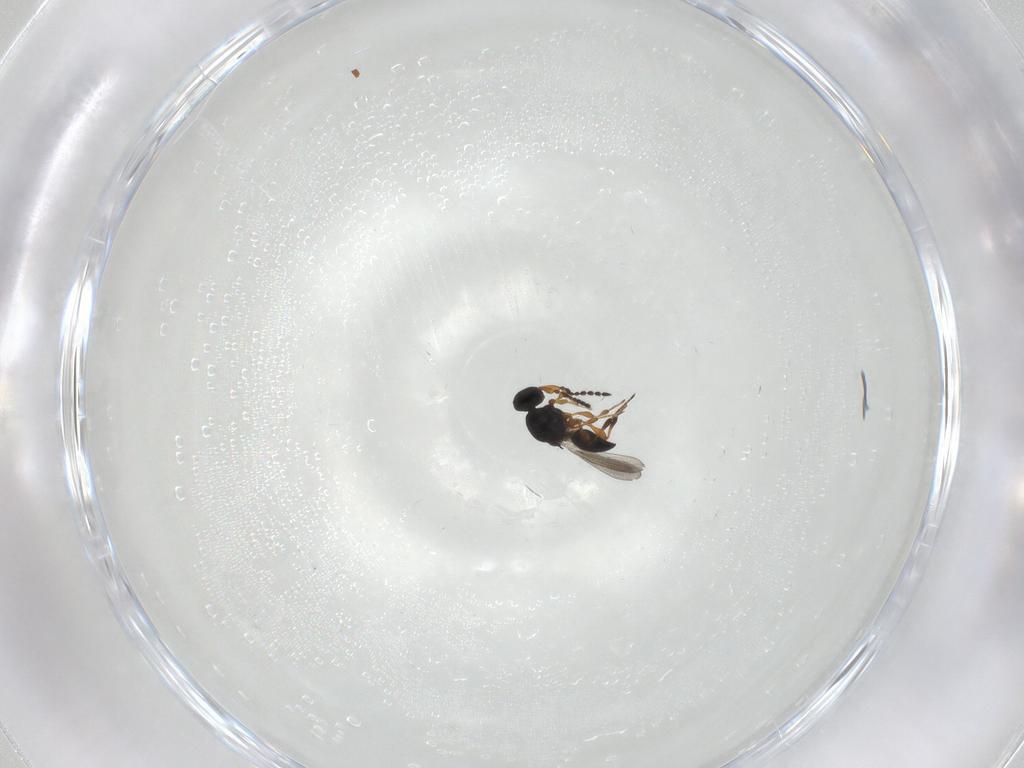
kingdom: Animalia
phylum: Arthropoda
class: Insecta
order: Hymenoptera
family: Platygastridae
